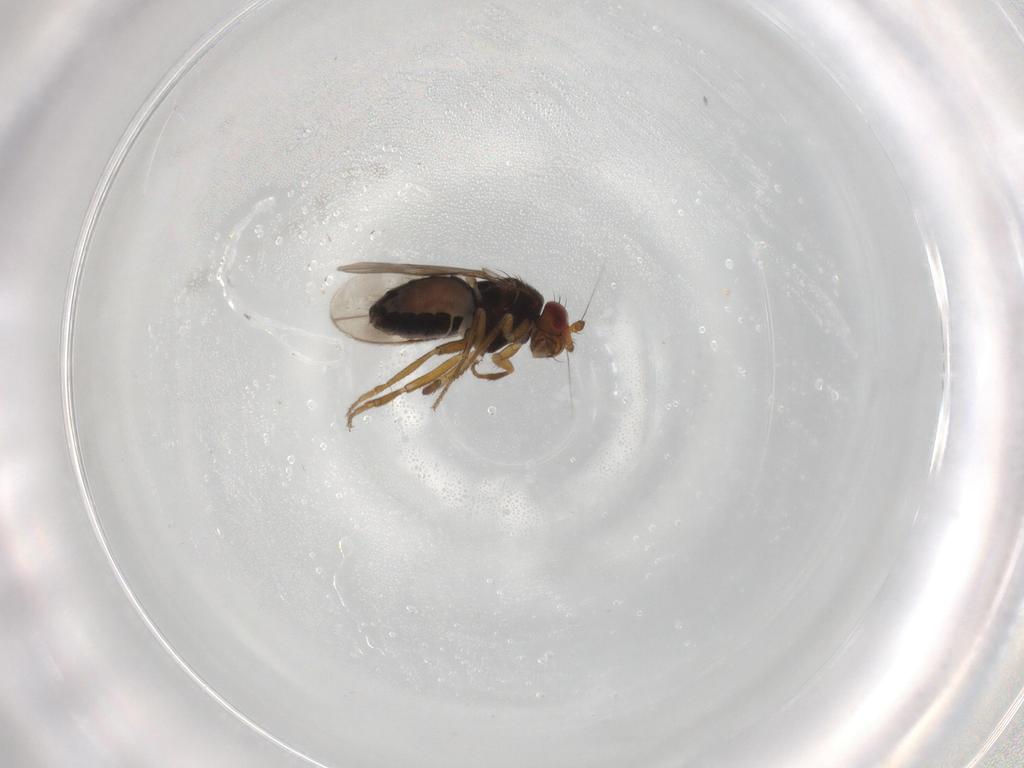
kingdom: Animalia
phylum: Arthropoda
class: Insecta
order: Diptera
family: Sphaeroceridae
